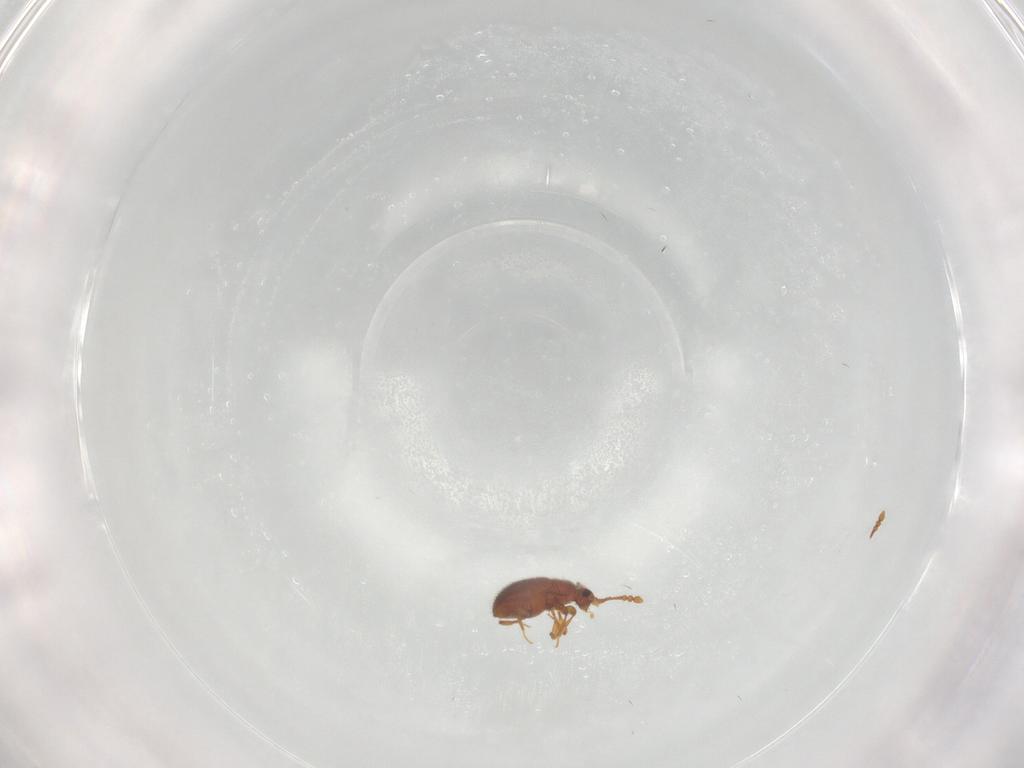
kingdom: Animalia
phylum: Arthropoda
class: Insecta
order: Coleoptera
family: Staphylinidae
